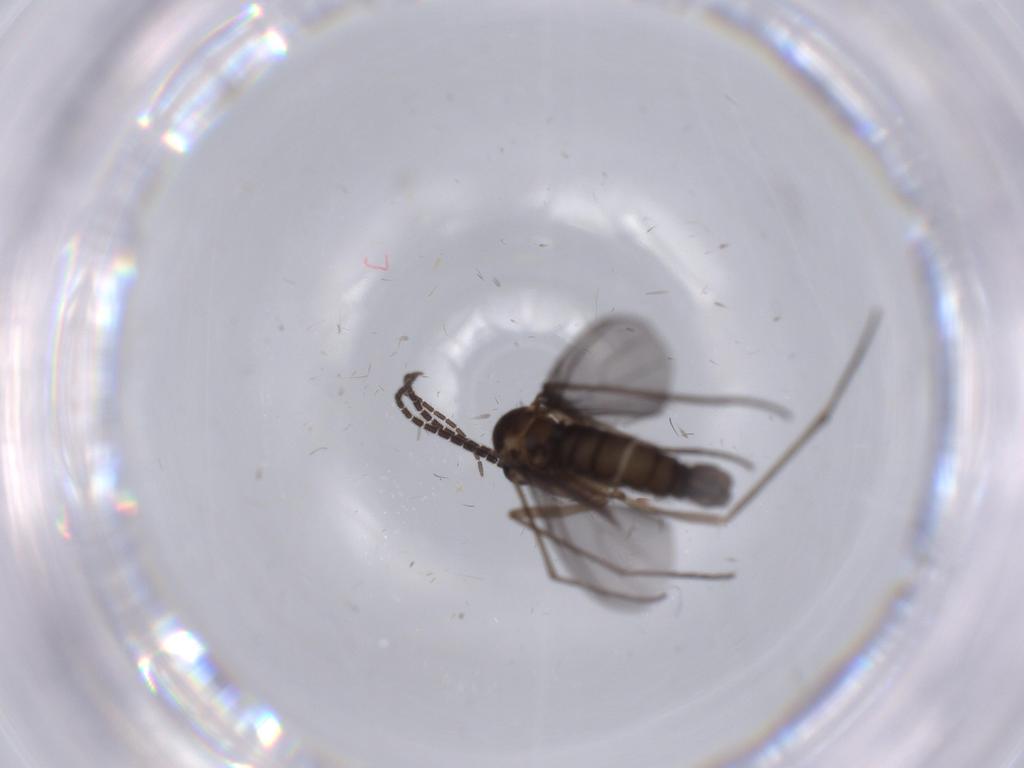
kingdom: Animalia
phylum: Arthropoda
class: Insecta
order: Diptera
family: Sciaridae
